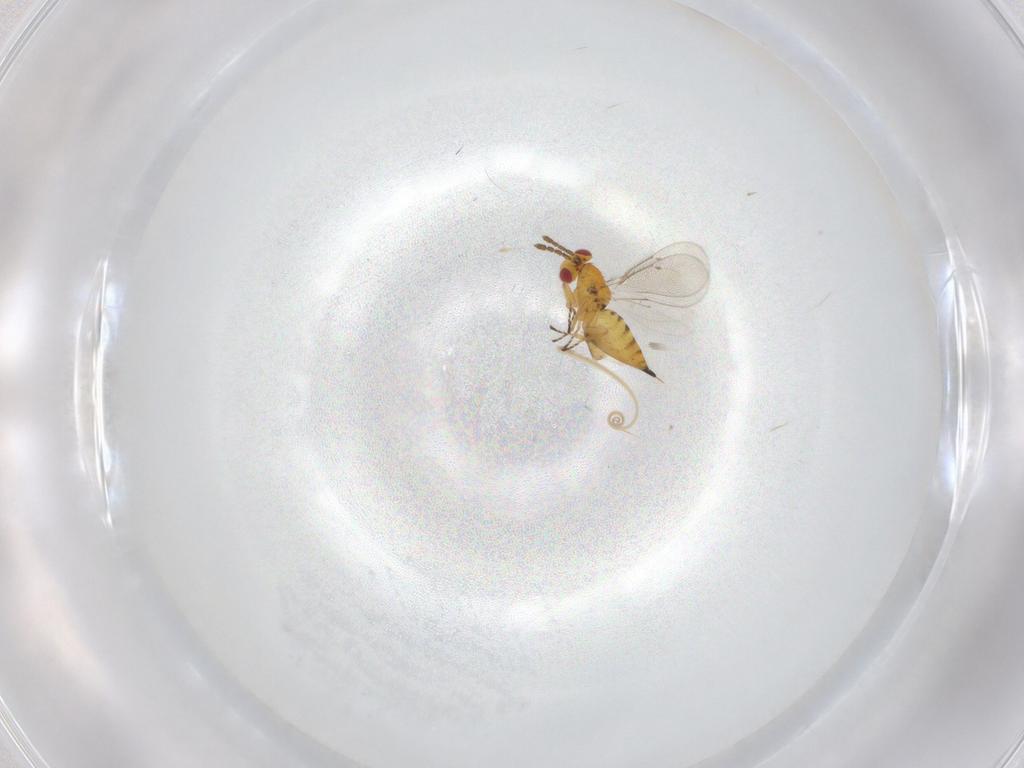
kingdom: Animalia
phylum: Arthropoda
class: Insecta
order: Hymenoptera
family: Eulophidae
